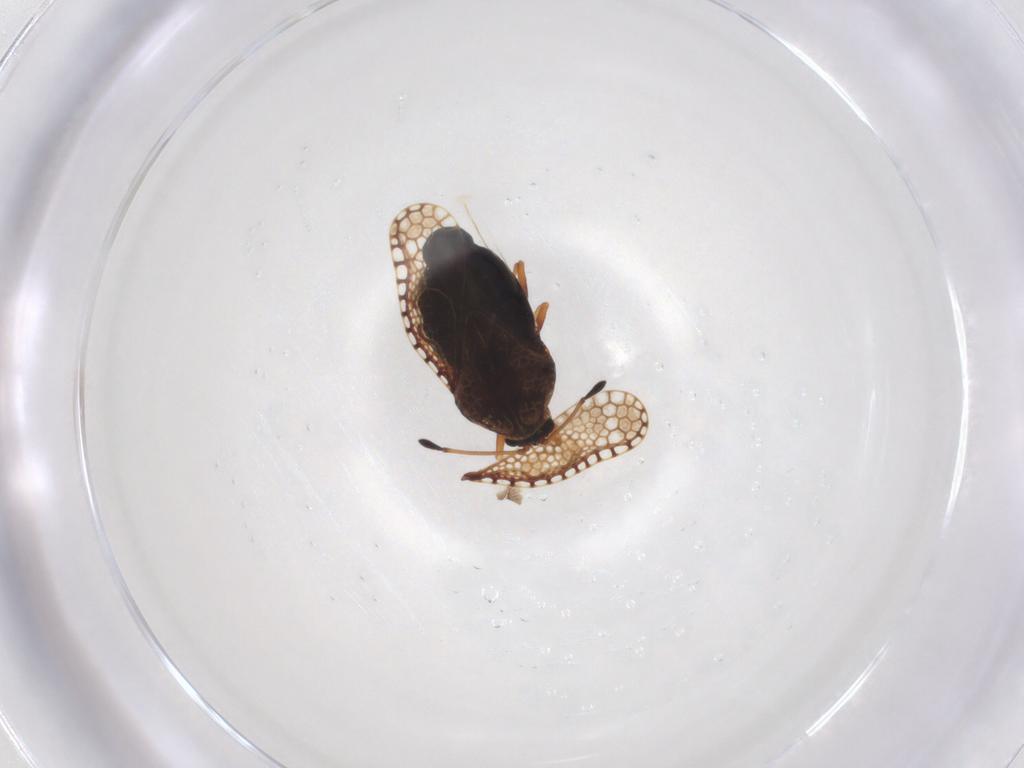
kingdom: Animalia
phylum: Arthropoda
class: Insecta
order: Hemiptera
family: Tingidae
